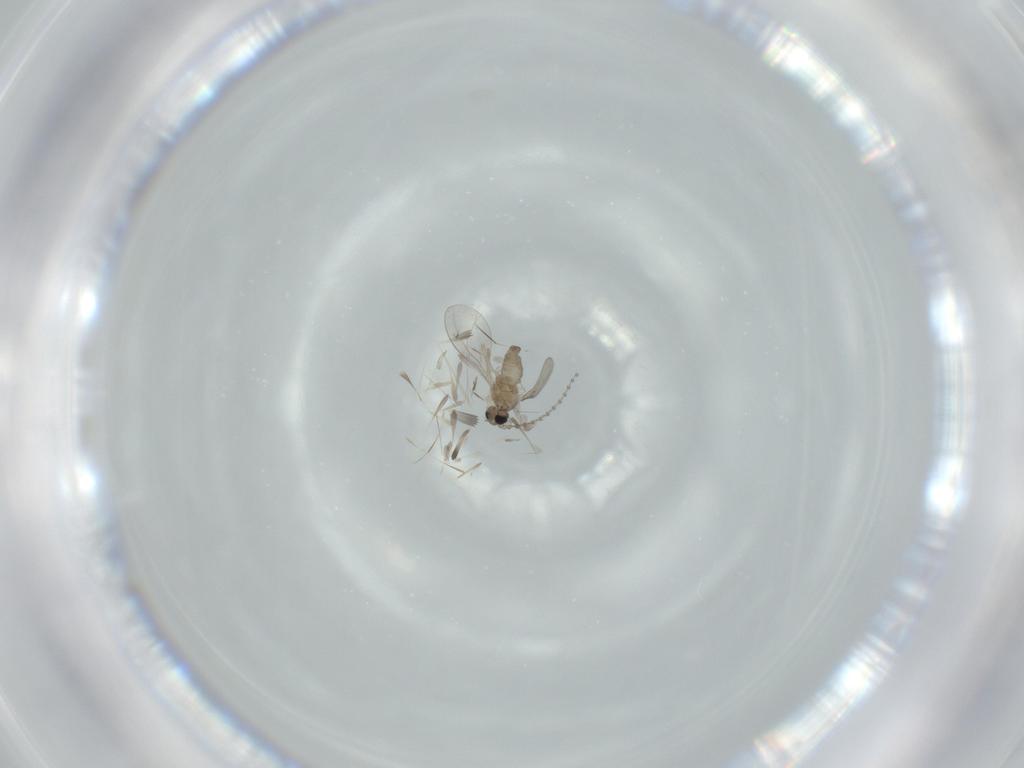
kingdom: Animalia
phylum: Arthropoda
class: Insecta
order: Diptera
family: Cecidomyiidae
